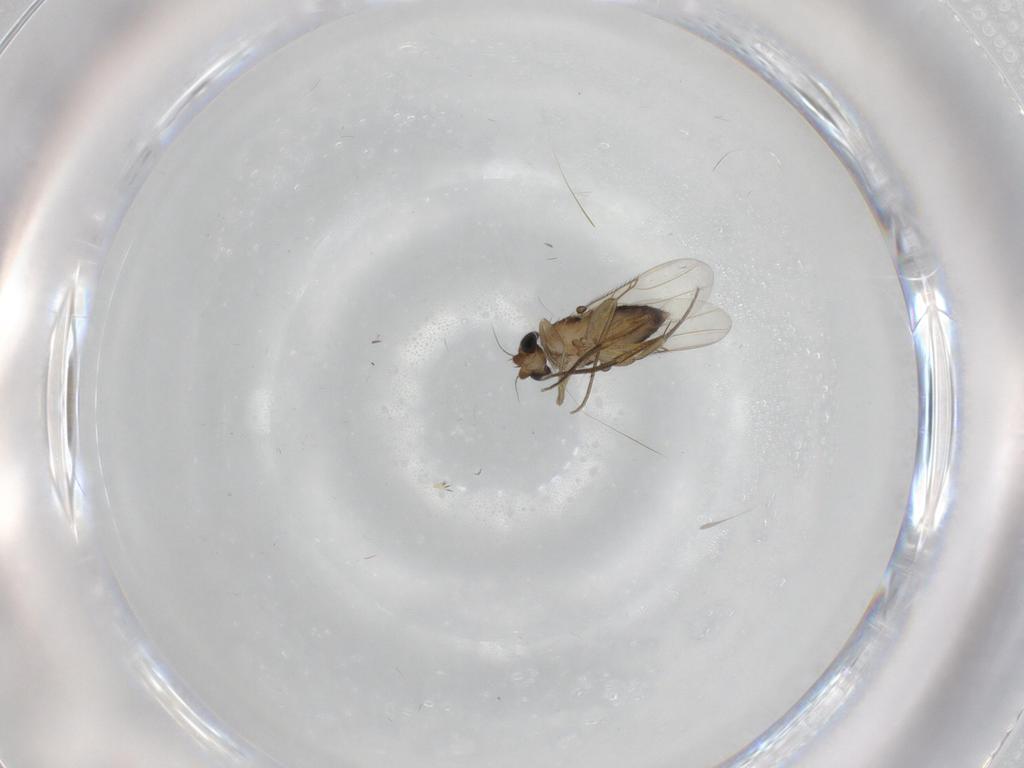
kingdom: Animalia
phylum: Arthropoda
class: Insecta
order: Diptera
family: Phoridae
